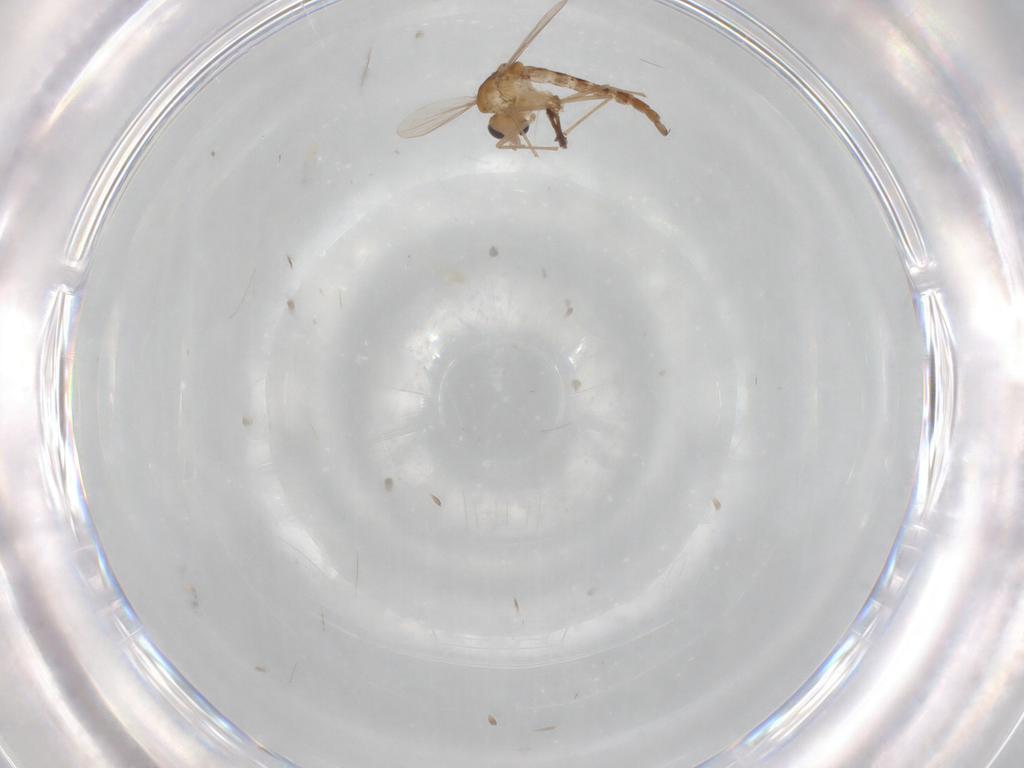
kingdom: Animalia
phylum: Arthropoda
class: Insecta
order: Diptera
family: Chironomidae
